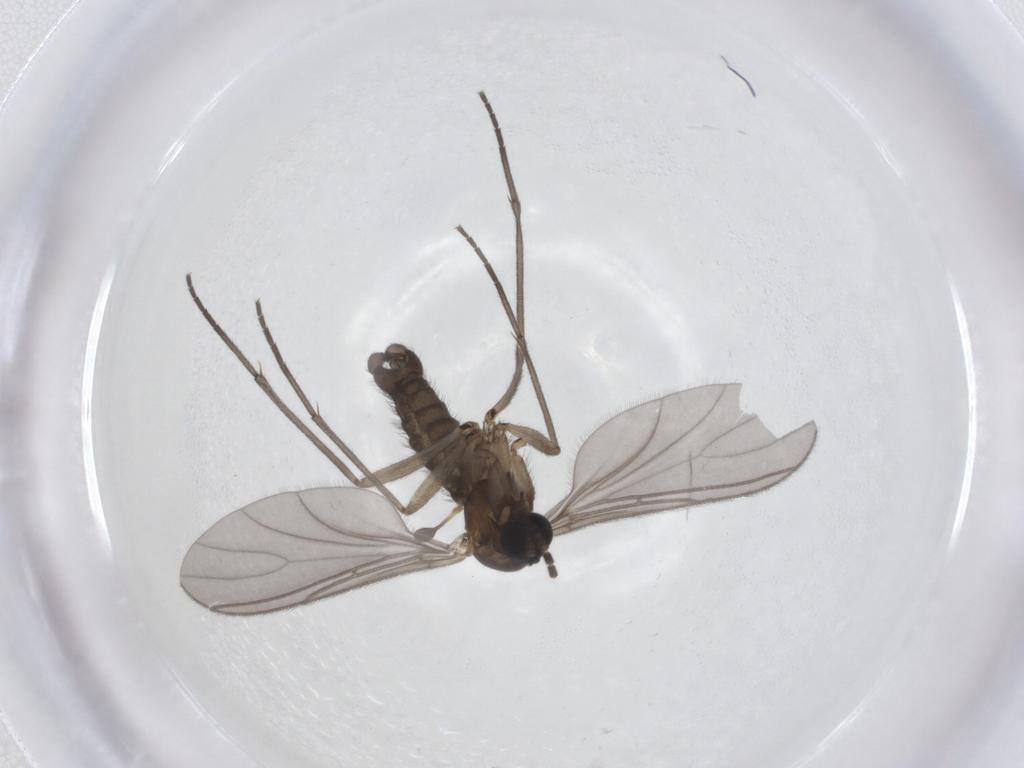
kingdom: Animalia
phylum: Arthropoda
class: Insecta
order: Diptera
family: Sciaridae
